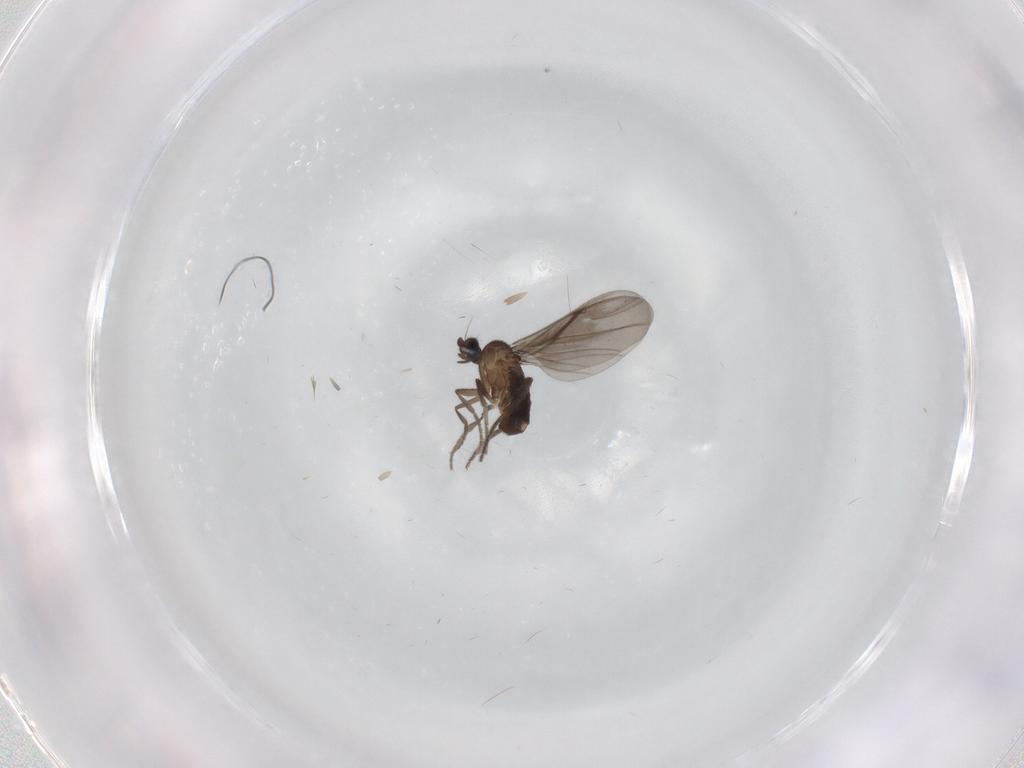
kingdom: Animalia
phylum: Arthropoda
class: Insecta
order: Diptera
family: Phoridae
